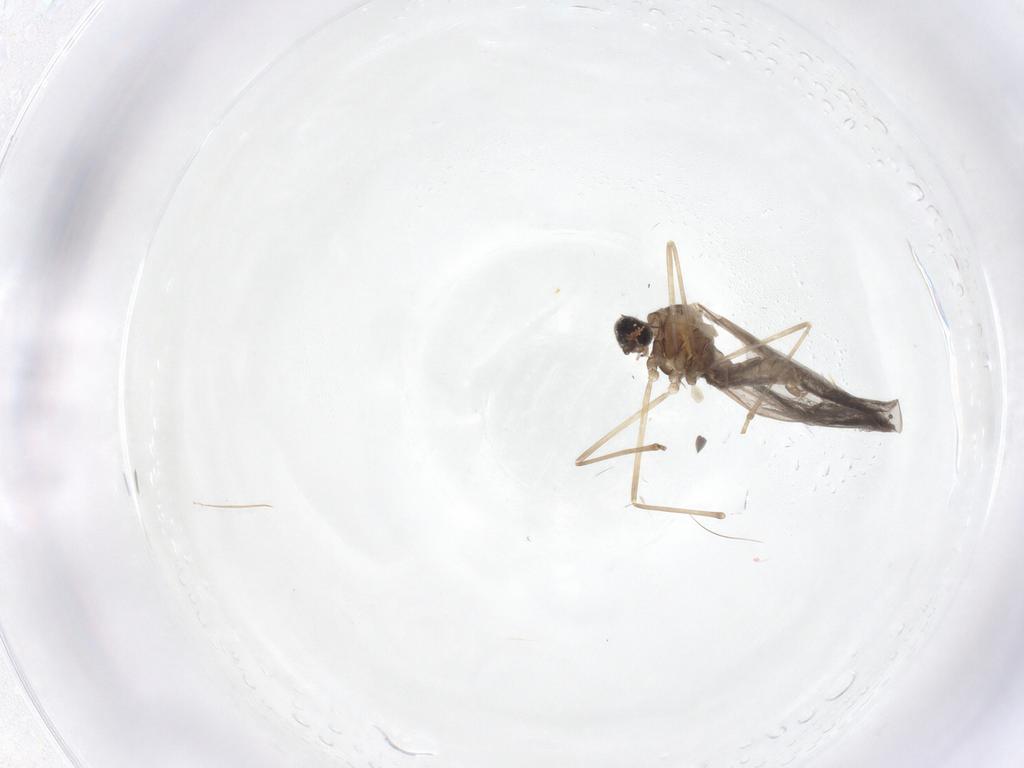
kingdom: Animalia
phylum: Arthropoda
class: Insecta
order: Diptera
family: Cecidomyiidae
